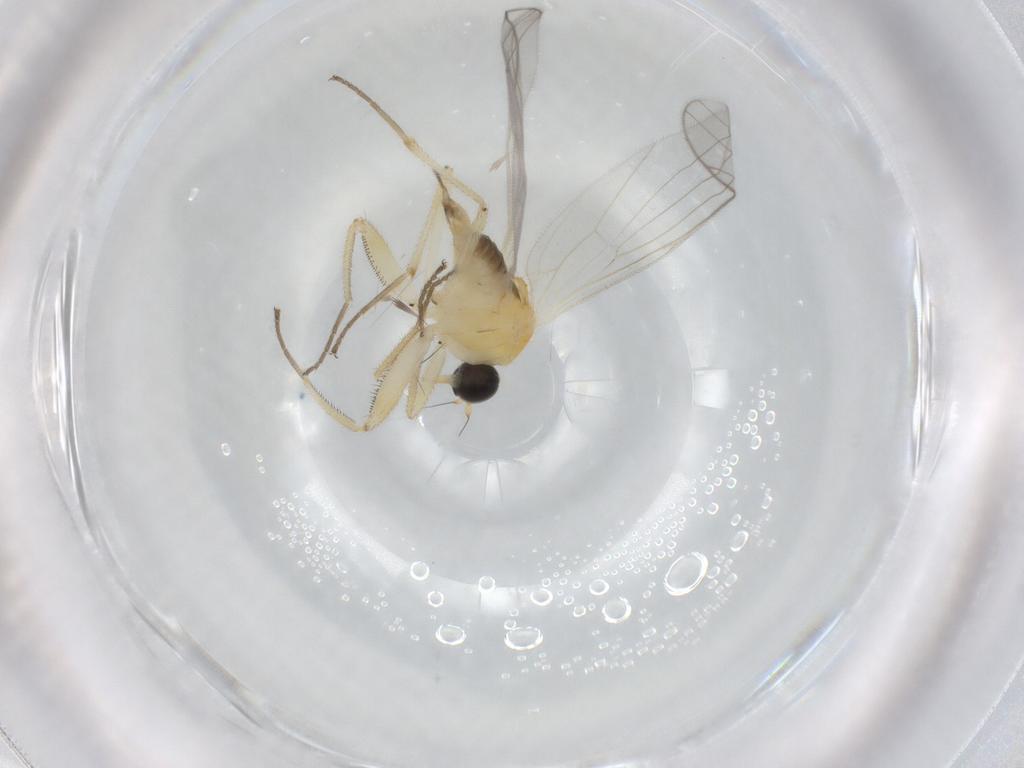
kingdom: Animalia
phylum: Arthropoda
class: Insecta
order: Diptera
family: Hybotidae
